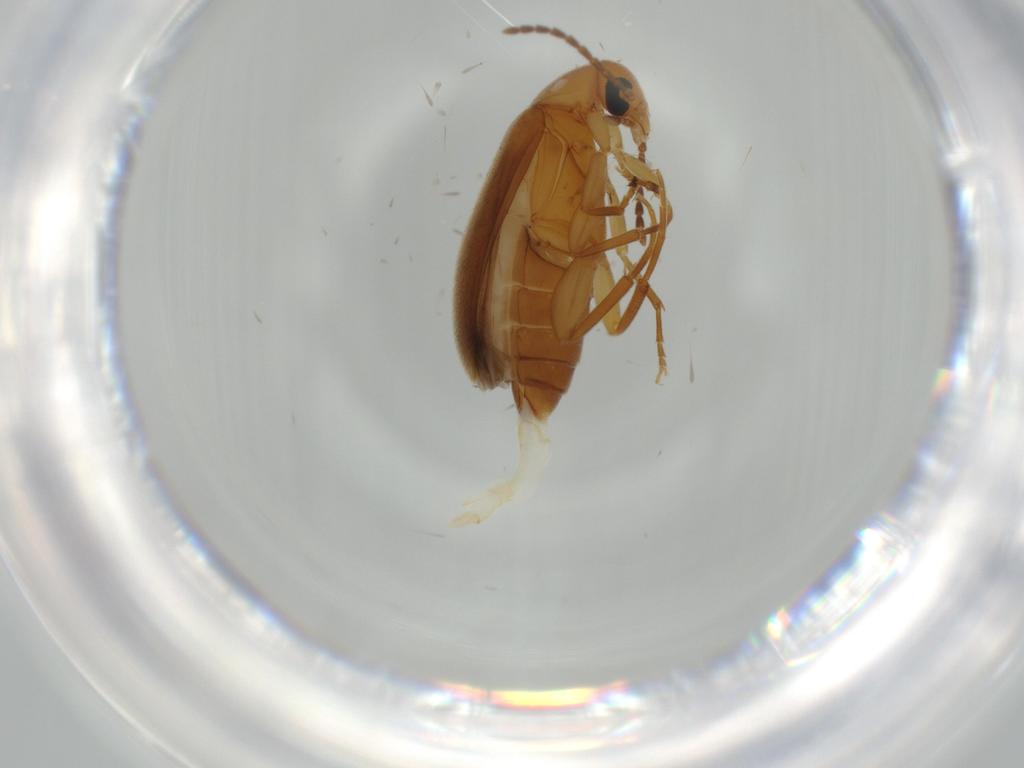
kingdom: Animalia
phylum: Arthropoda
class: Insecta
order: Coleoptera
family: Scraptiidae
